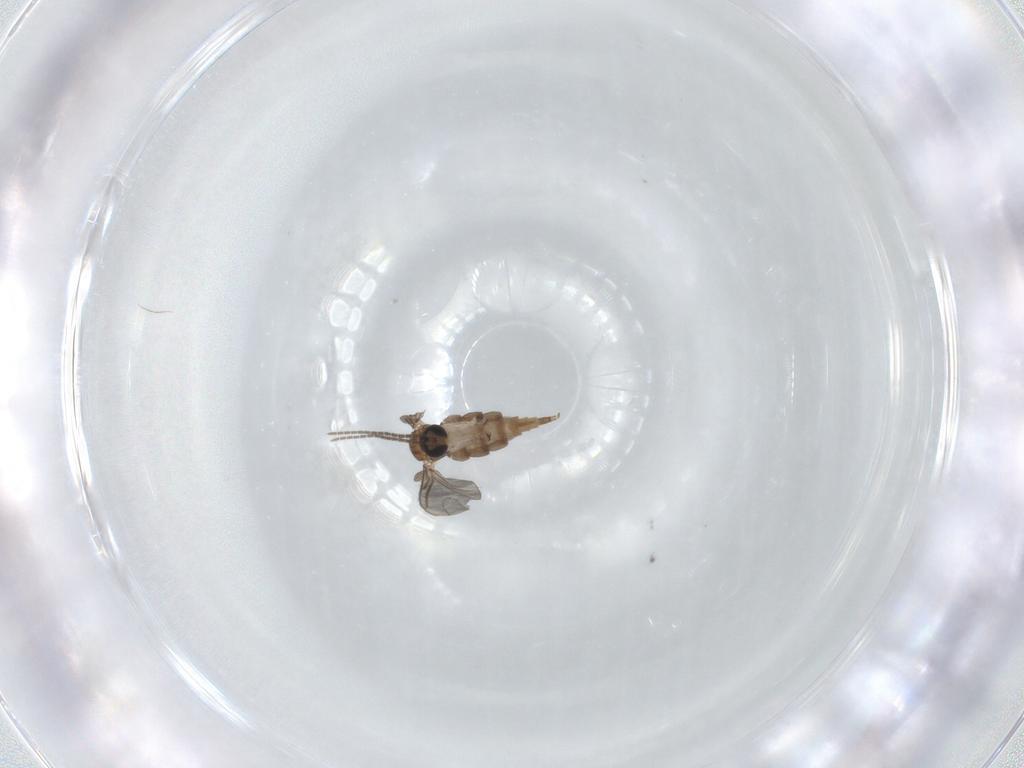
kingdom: Animalia
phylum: Arthropoda
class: Insecta
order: Diptera
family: Sciaridae
